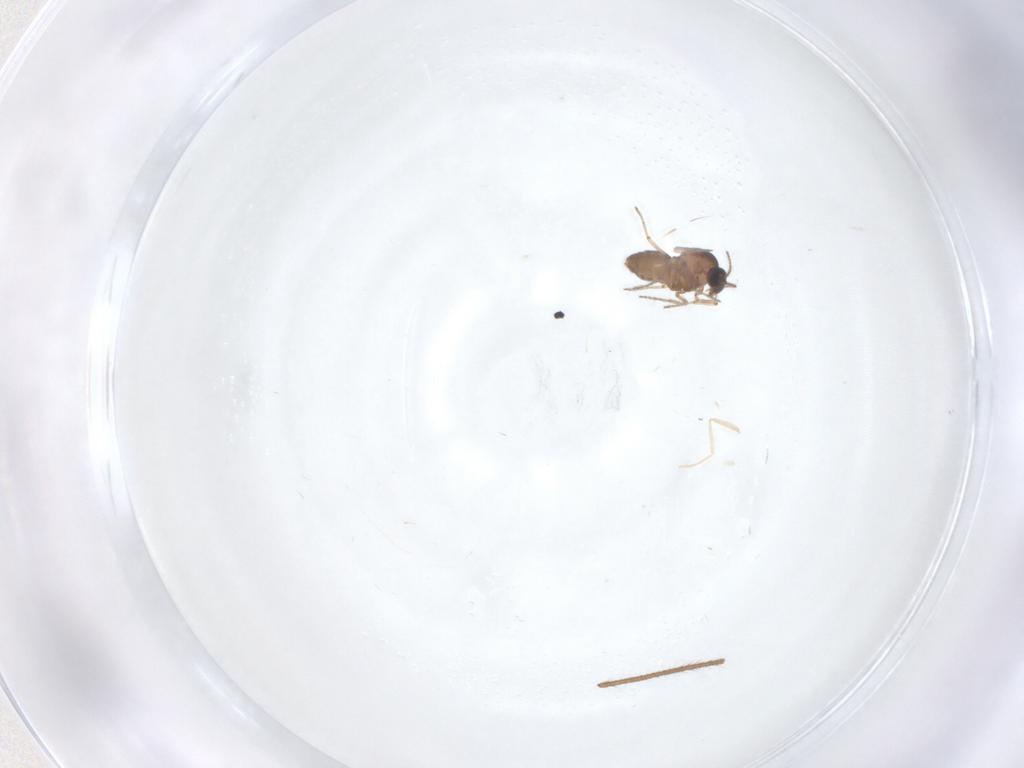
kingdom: Animalia
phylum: Arthropoda
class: Insecta
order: Diptera
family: Ceratopogonidae
